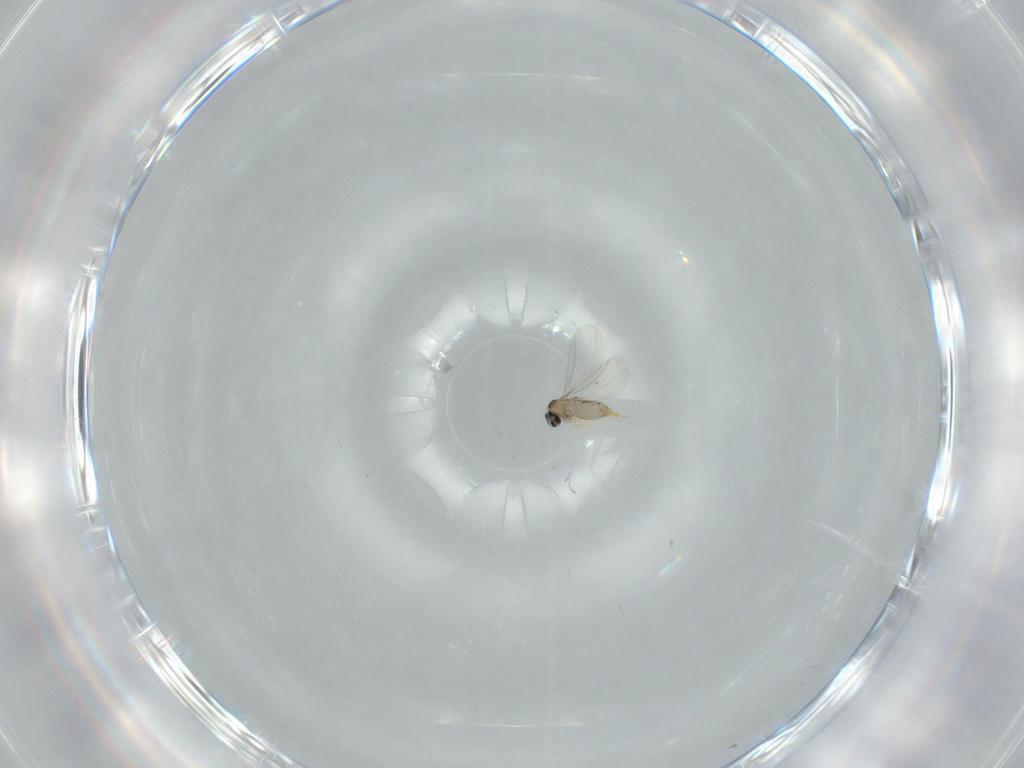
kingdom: Animalia
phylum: Arthropoda
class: Insecta
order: Diptera
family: Cecidomyiidae
